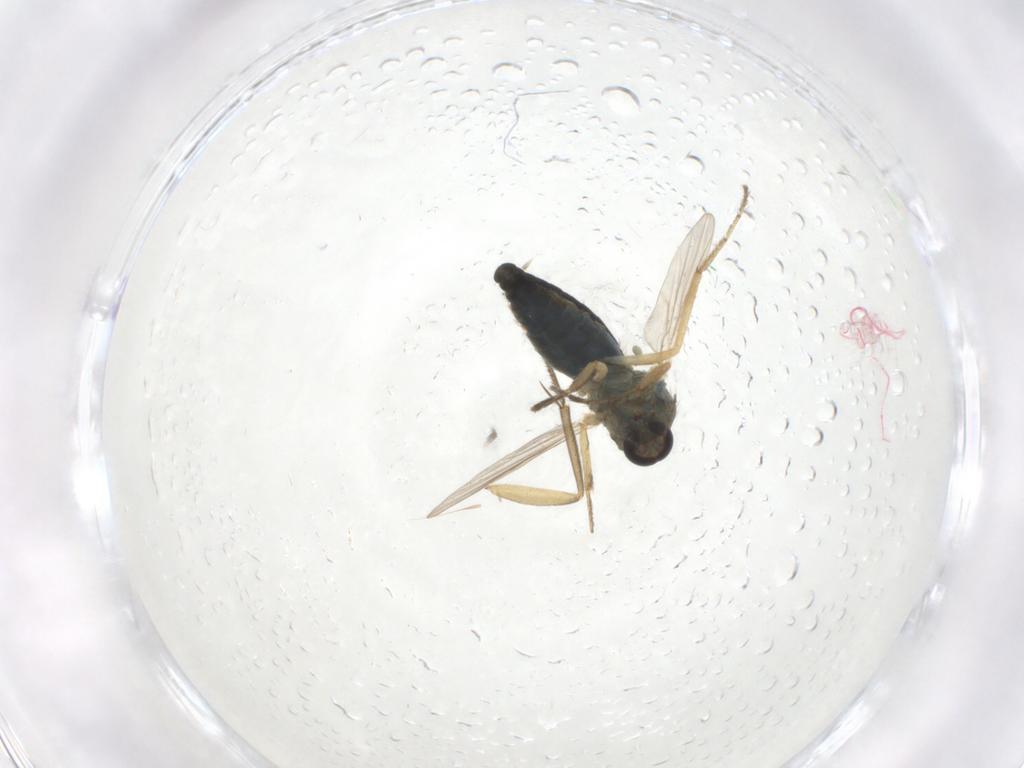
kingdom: Animalia
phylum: Arthropoda
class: Insecta
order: Diptera
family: Ceratopogonidae
